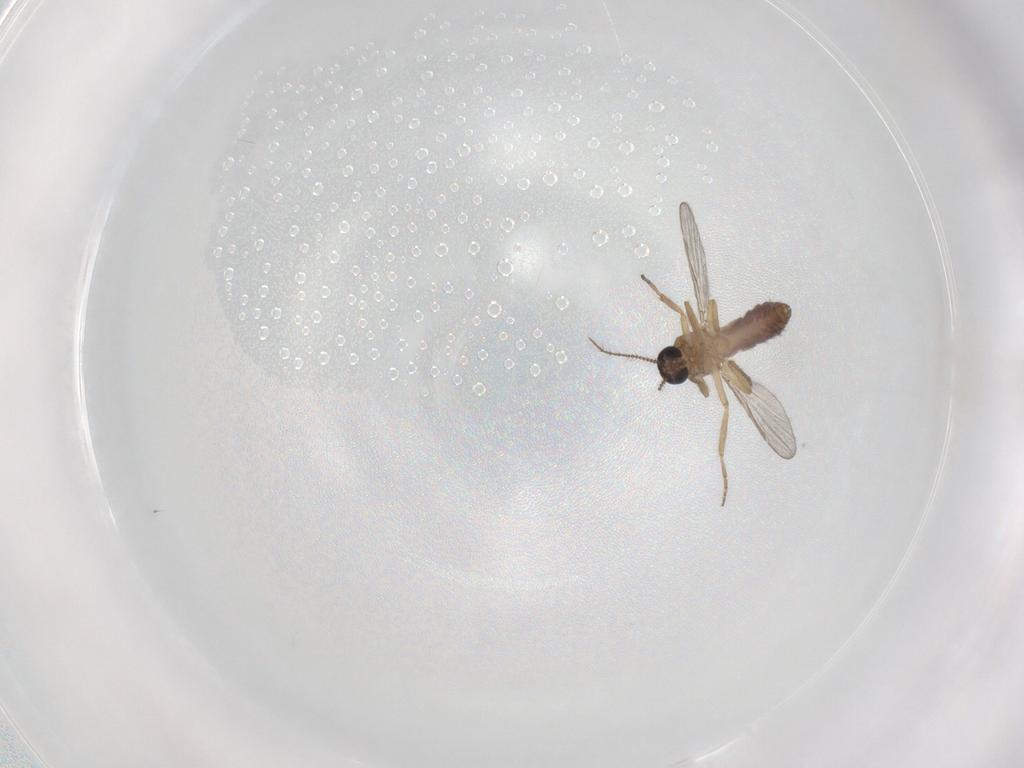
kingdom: Animalia
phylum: Arthropoda
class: Insecta
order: Diptera
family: Ceratopogonidae
